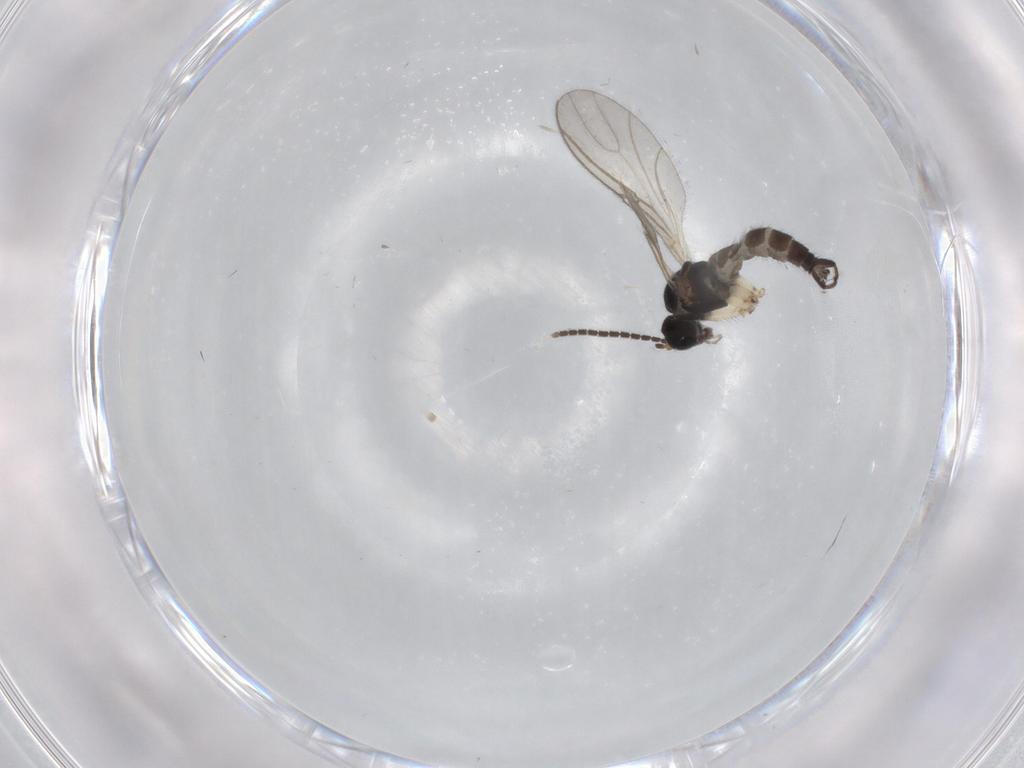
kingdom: Animalia
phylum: Arthropoda
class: Insecta
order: Diptera
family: Sciaridae
